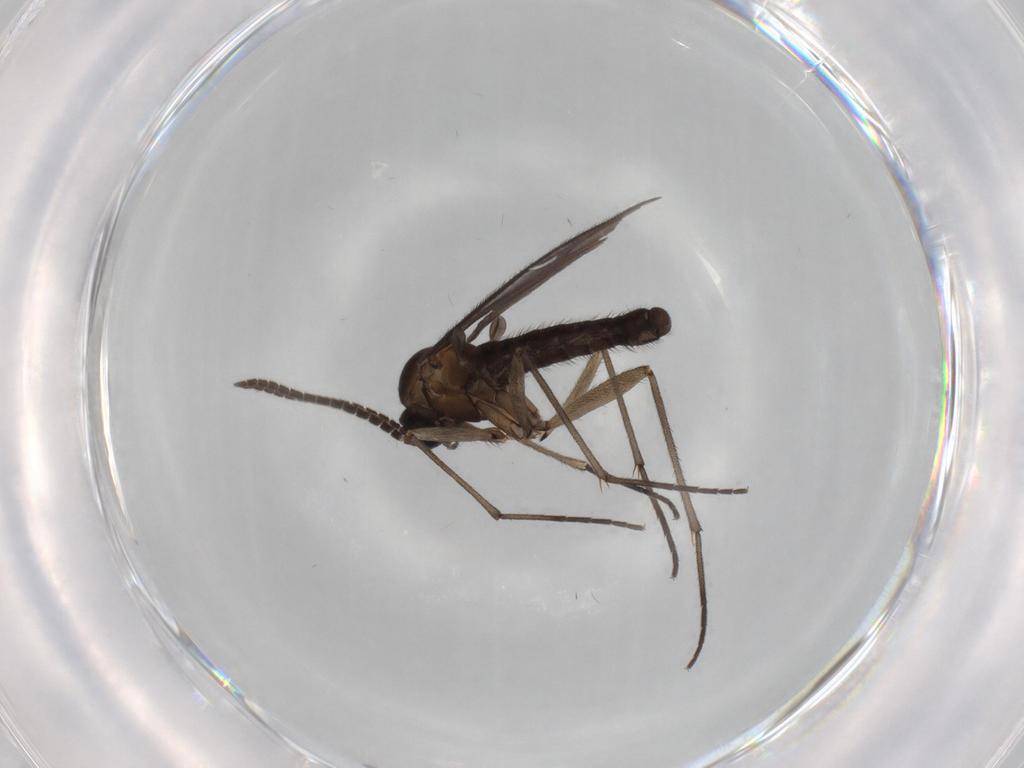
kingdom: Animalia
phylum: Arthropoda
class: Insecta
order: Diptera
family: Sciaridae
